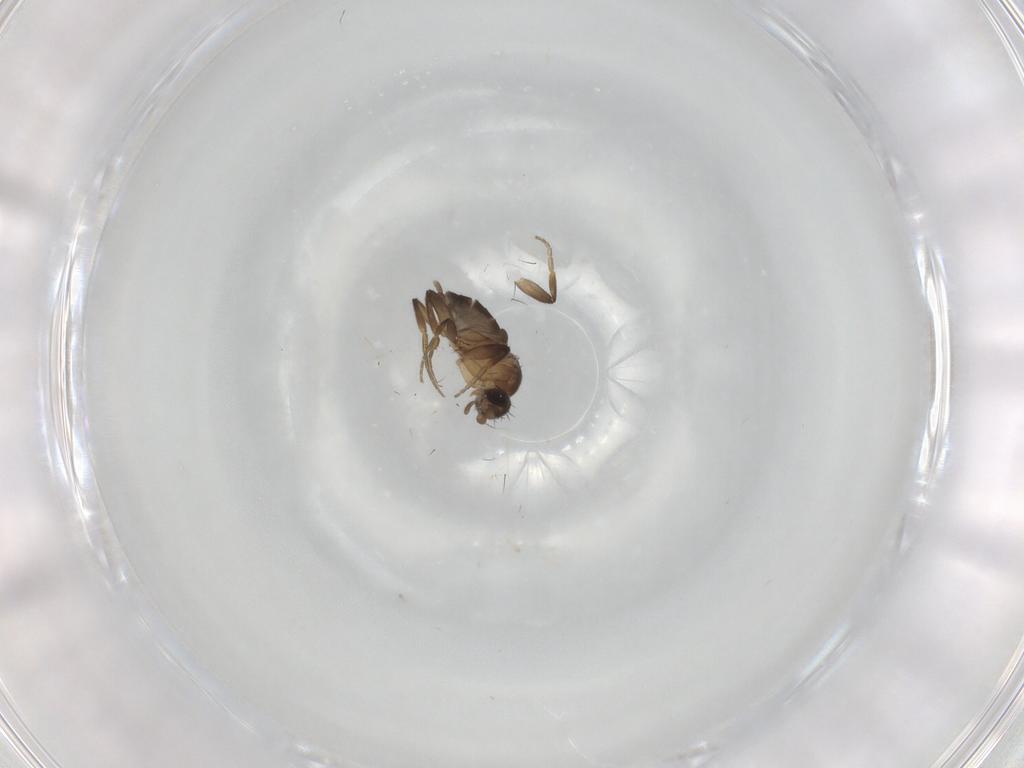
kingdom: Animalia
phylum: Arthropoda
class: Insecta
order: Diptera
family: Phoridae
